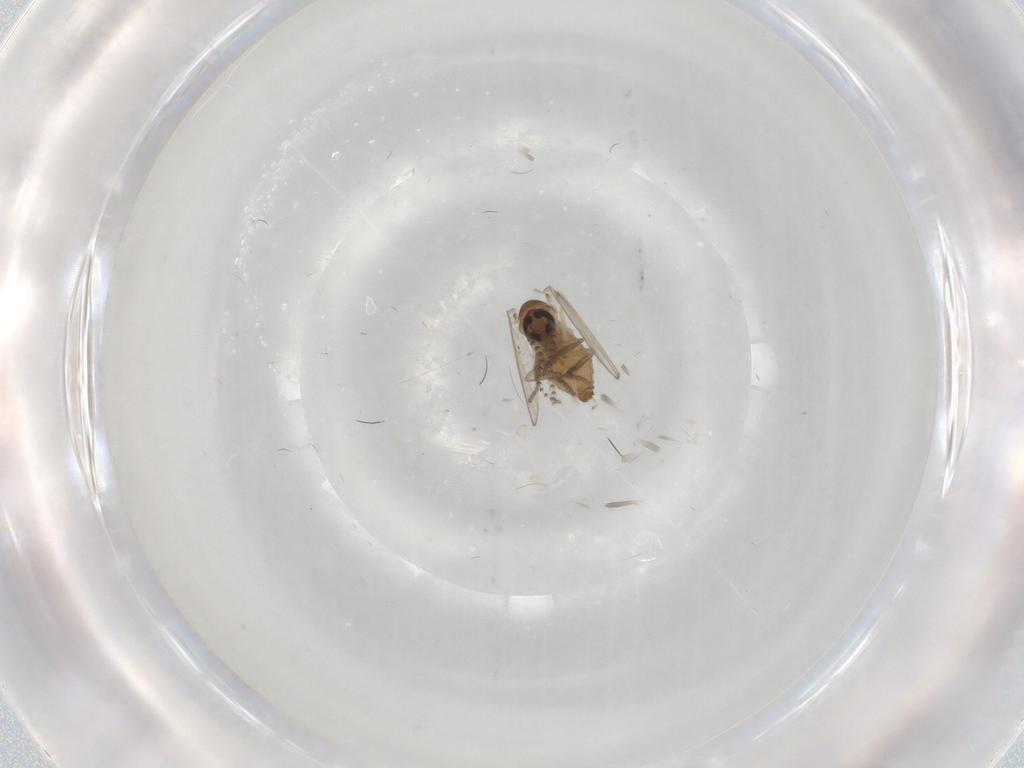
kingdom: Animalia
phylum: Arthropoda
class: Insecta
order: Diptera
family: Psychodidae
